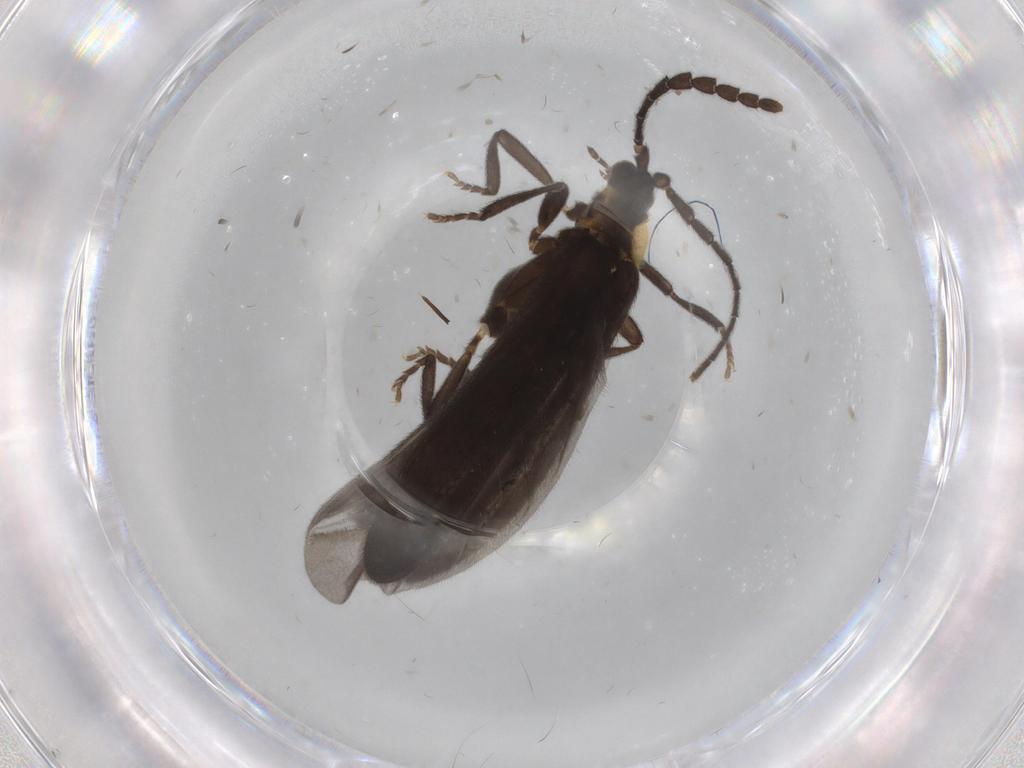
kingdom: Animalia
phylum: Arthropoda
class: Insecta
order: Coleoptera
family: Lycidae
